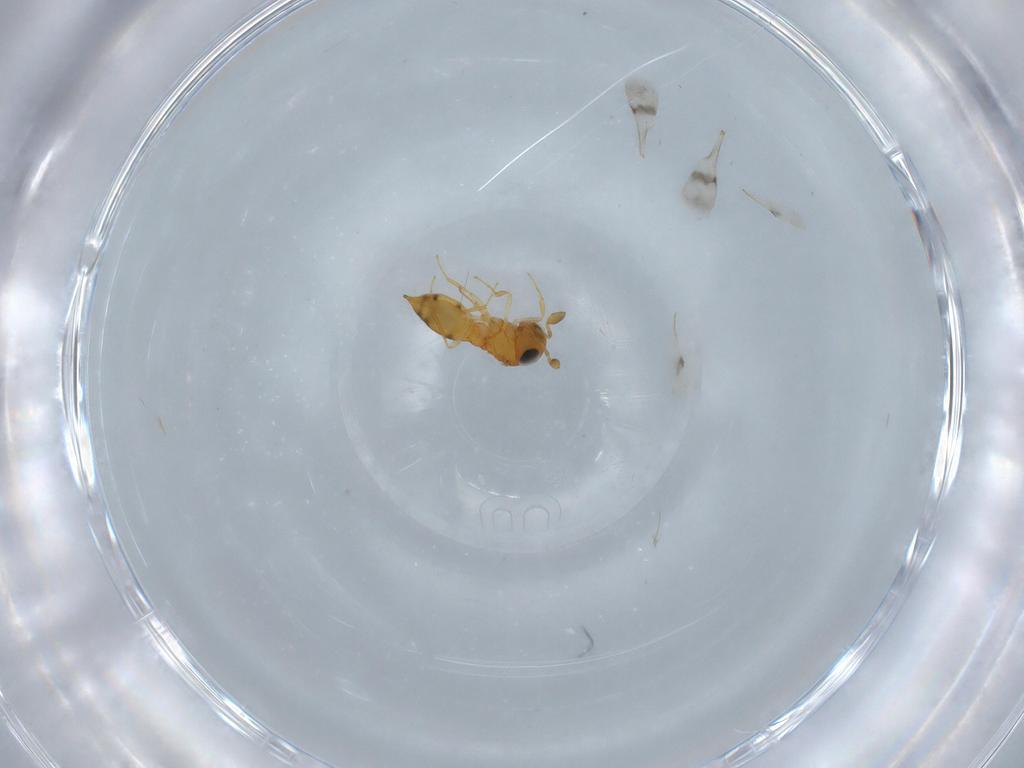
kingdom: Animalia
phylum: Arthropoda
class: Insecta
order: Hymenoptera
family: Scelionidae
